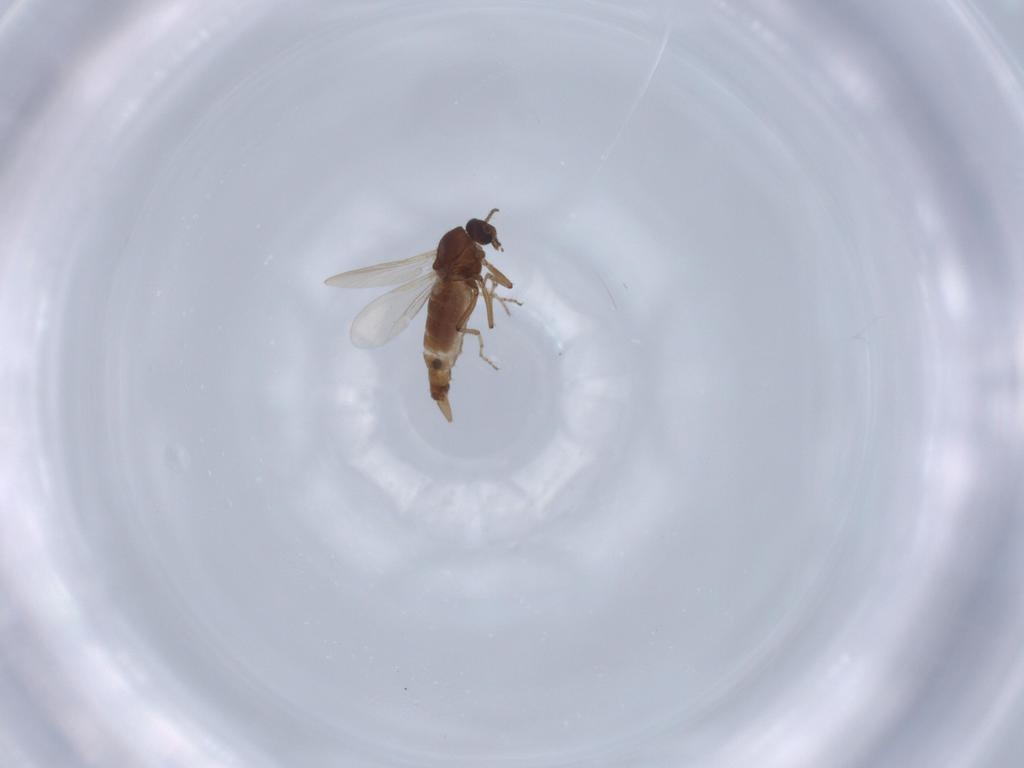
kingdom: Animalia
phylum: Arthropoda
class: Insecta
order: Diptera
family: Ceratopogonidae
